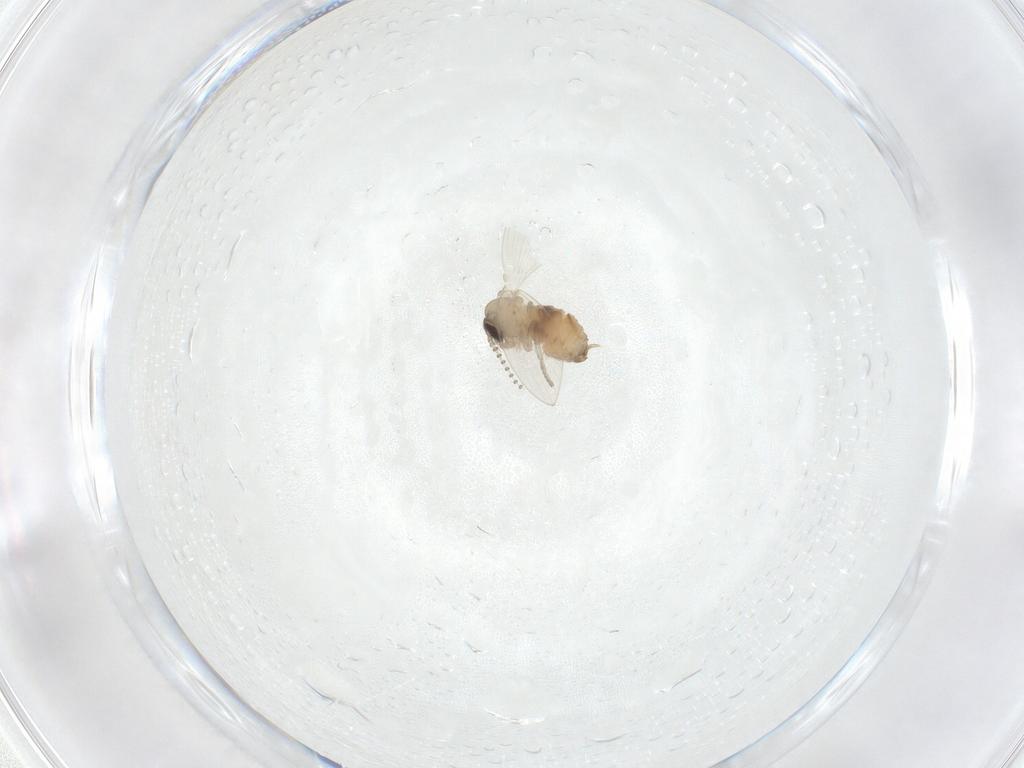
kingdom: Animalia
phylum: Arthropoda
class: Insecta
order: Diptera
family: Psychodidae
